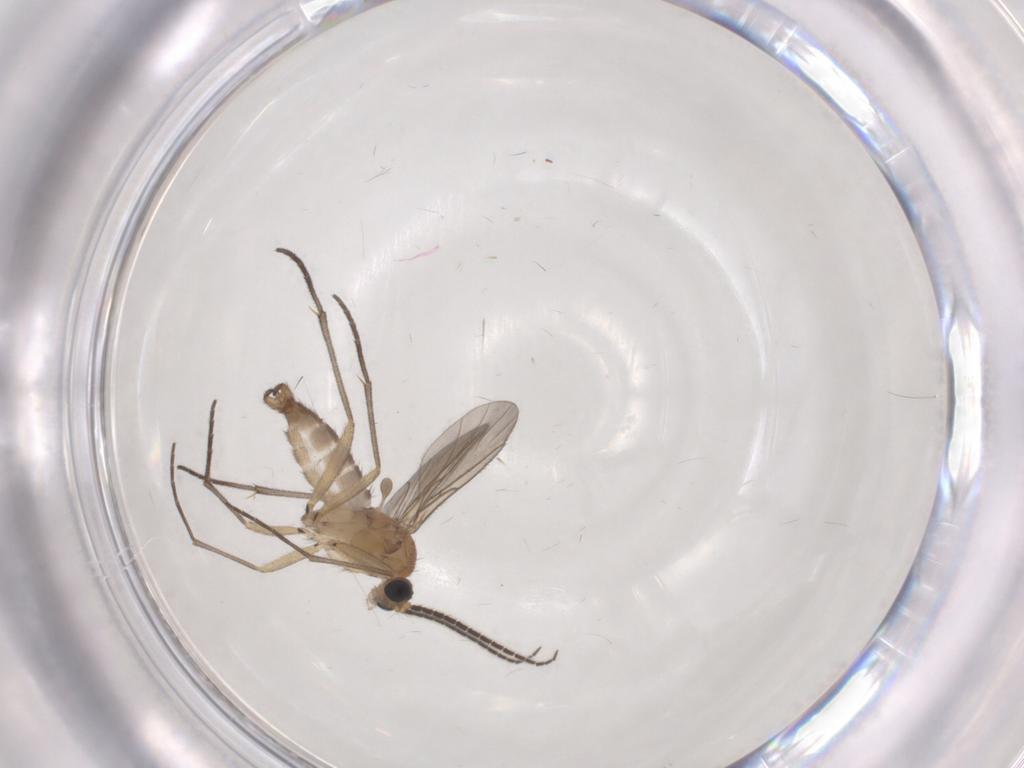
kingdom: Animalia
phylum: Arthropoda
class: Insecta
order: Diptera
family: Sciaridae
